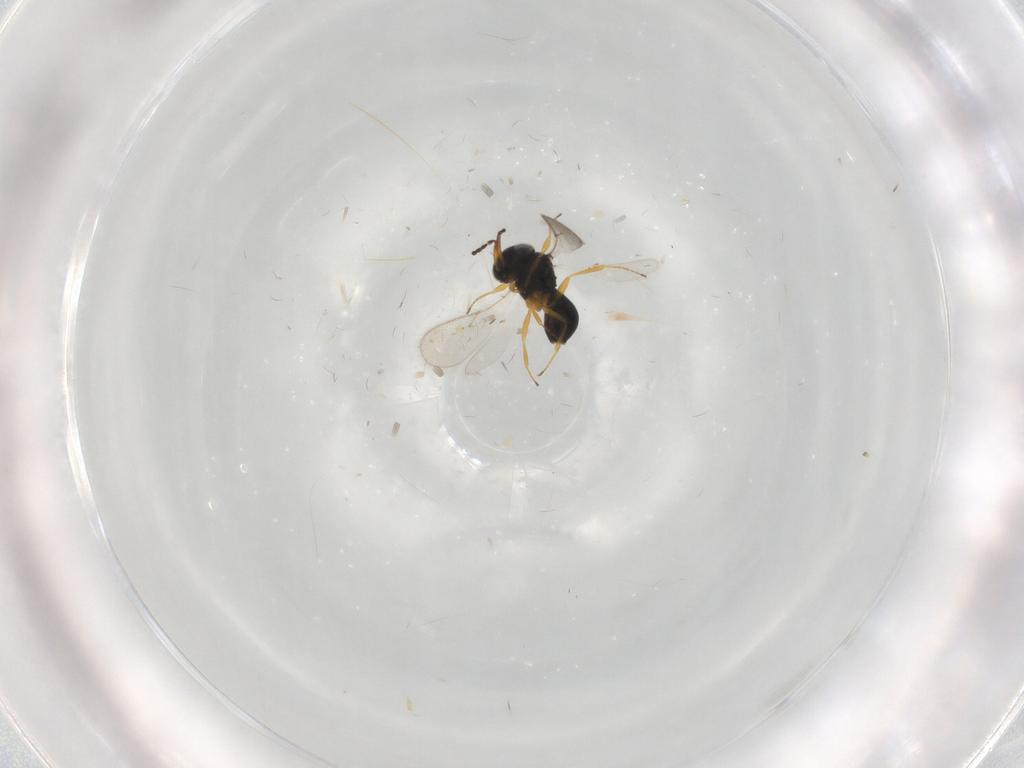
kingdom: Animalia
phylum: Arthropoda
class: Insecta
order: Hymenoptera
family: Scelionidae
